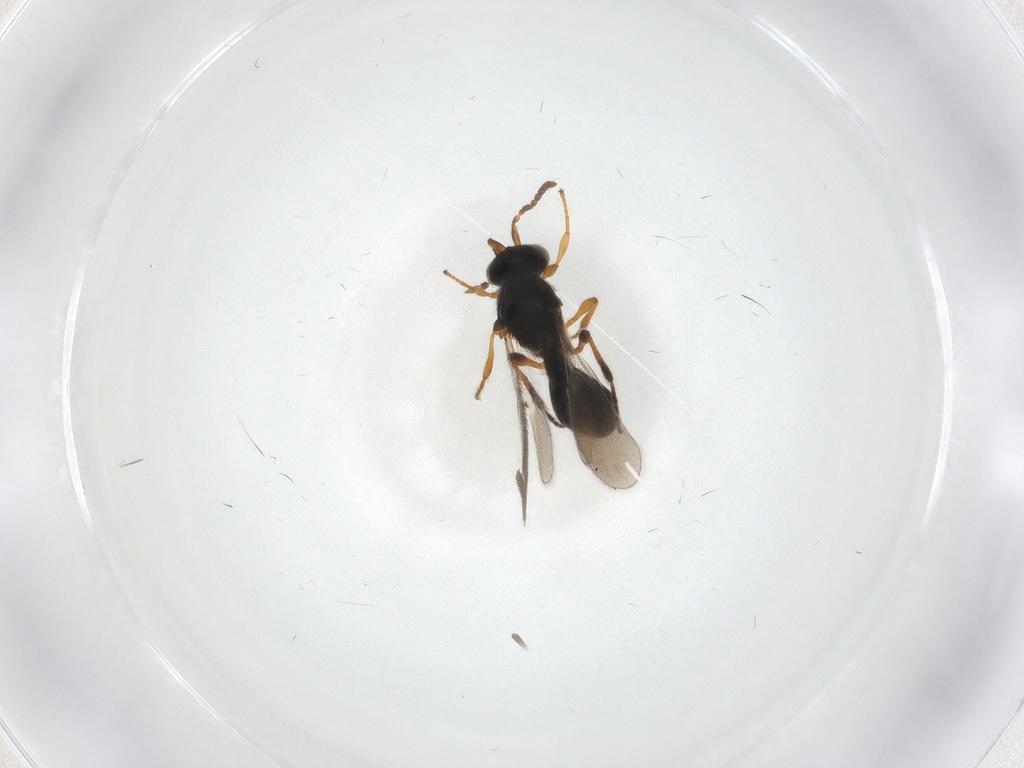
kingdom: Animalia
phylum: Arthropoda
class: Insecta
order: Hymenoptera
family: Platygastridae
